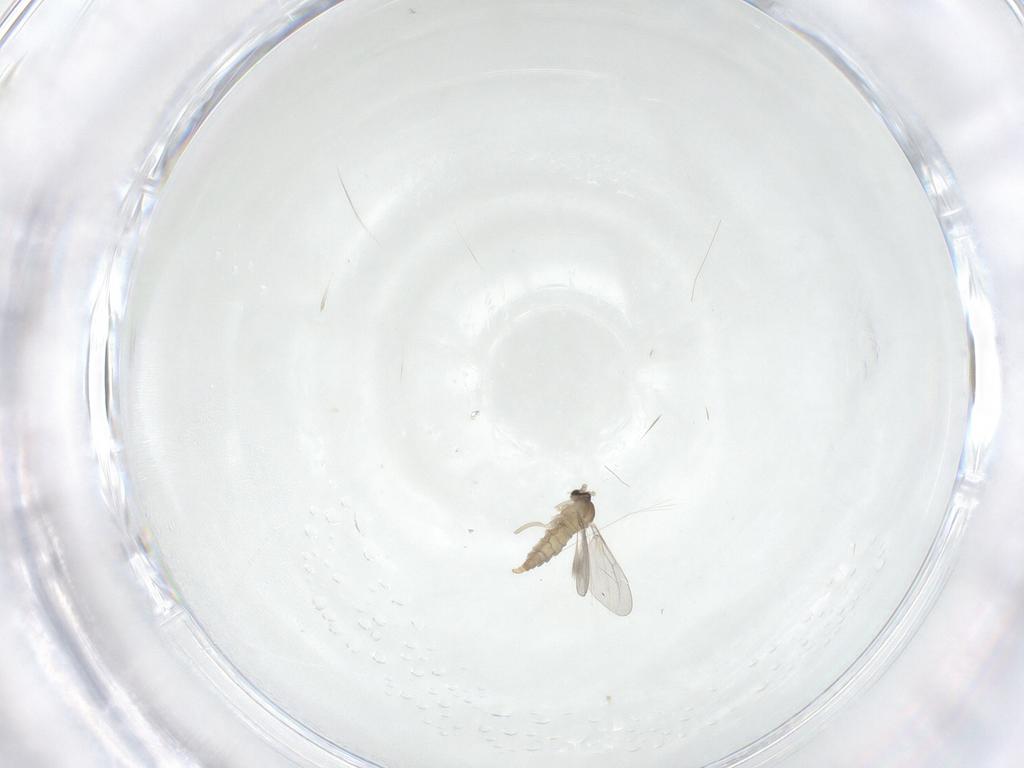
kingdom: Animalia
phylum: Arthropoda
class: Insecta
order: Diptera
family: Cecidomyiidae
